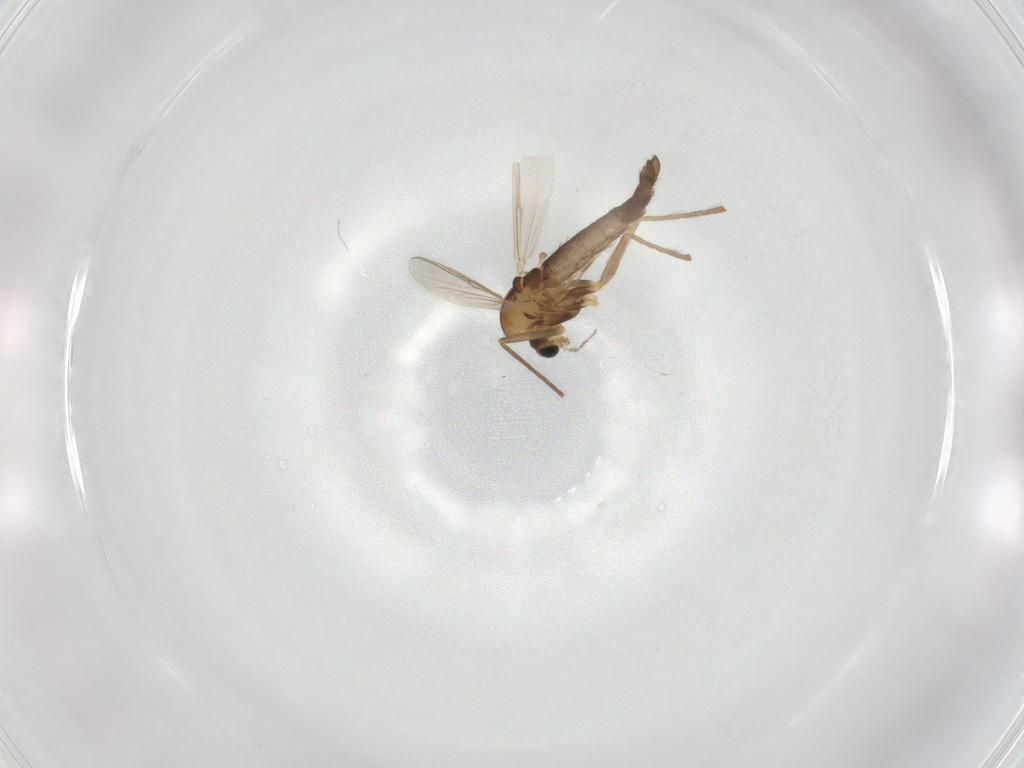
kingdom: Animalia
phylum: Arthropoda
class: Insecta
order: Diptera
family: Chironomidae
